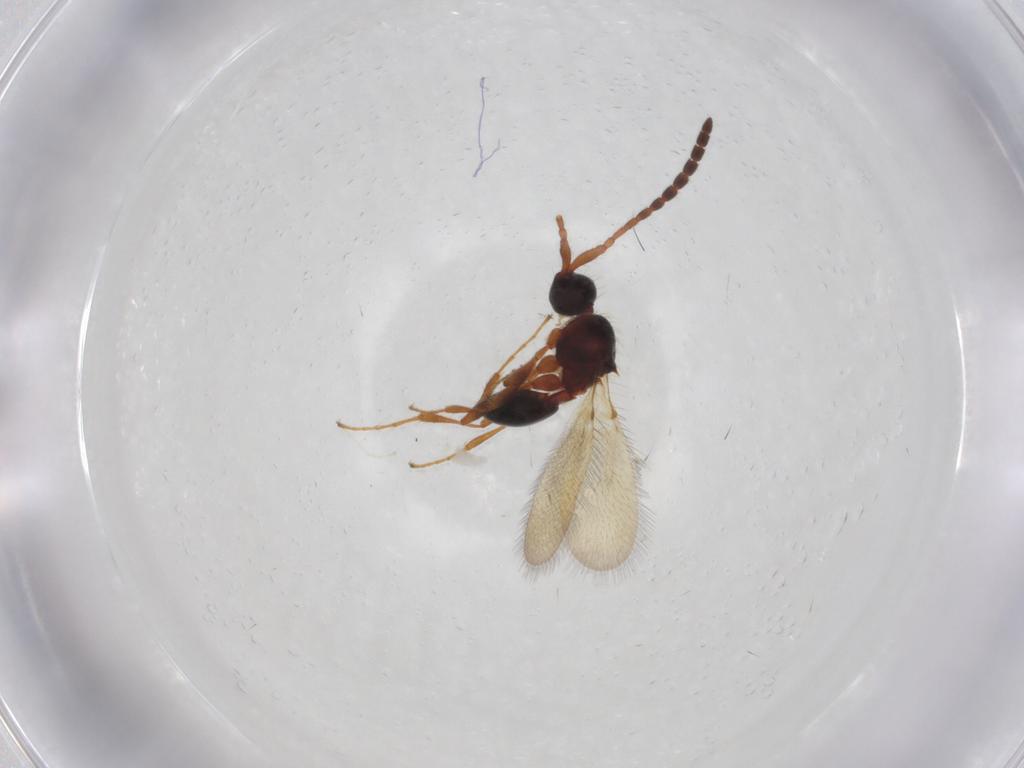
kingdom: Animalia
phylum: Arthropoda
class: Insecta
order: Hymenoptera
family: Diapriidae
